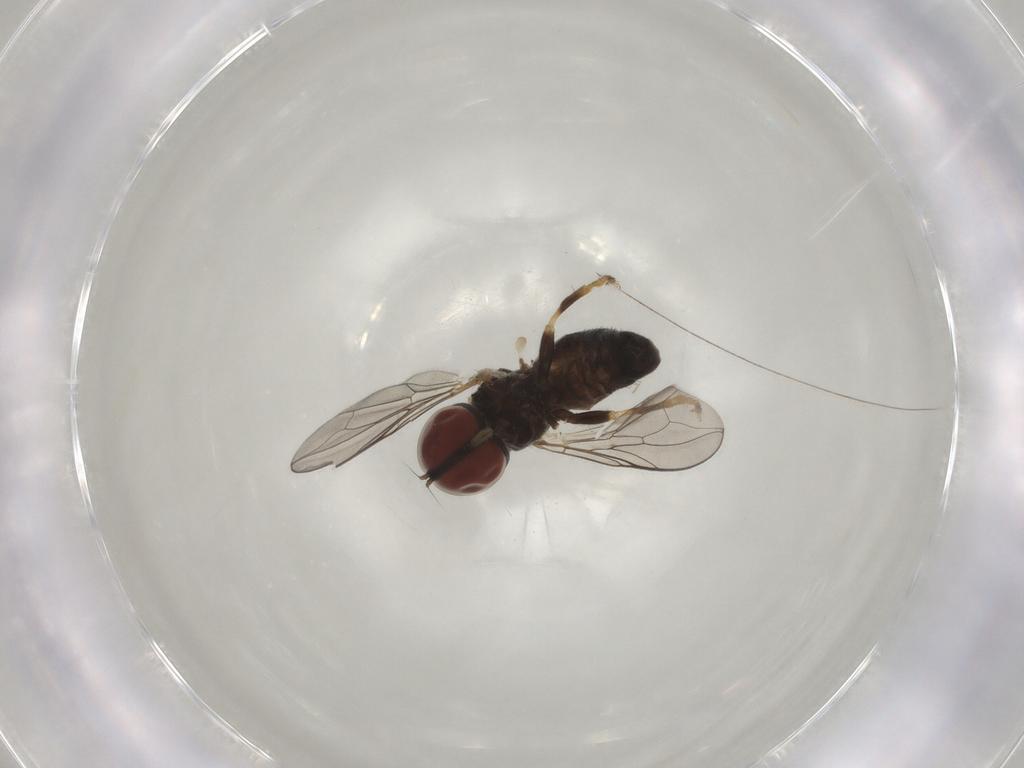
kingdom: Animalia
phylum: Arthropoda
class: Insecta
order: Diptera
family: Pipunculidae
